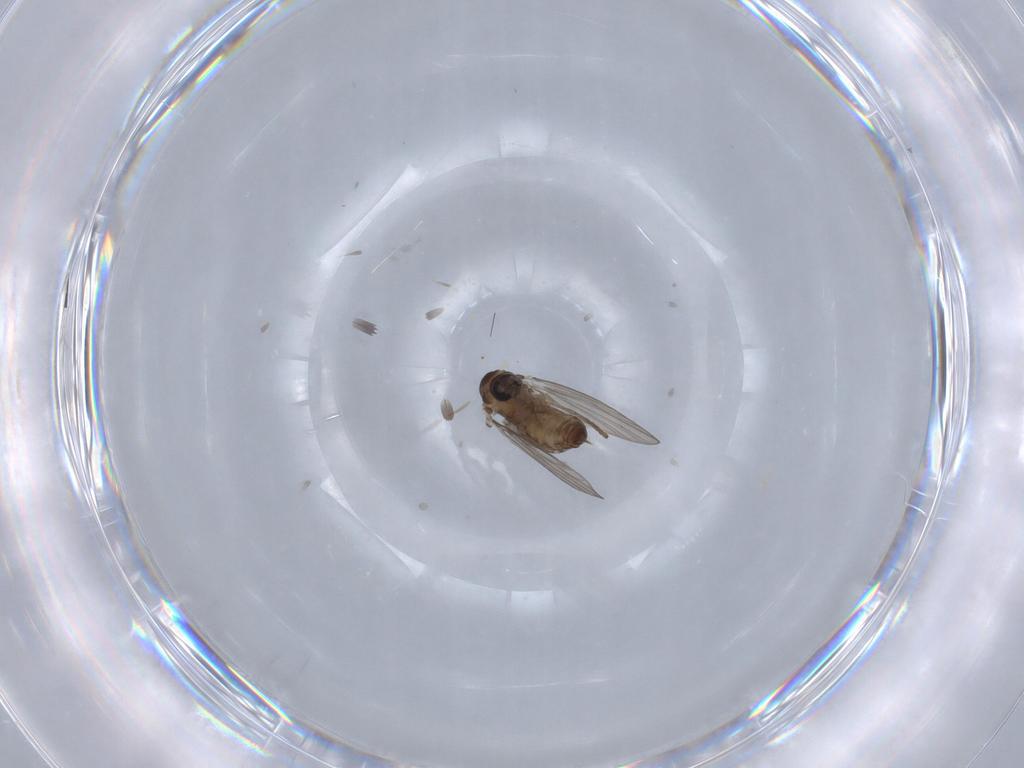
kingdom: Animalia
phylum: Arthropoda
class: Insecta
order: Diptera
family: Psychodidae
